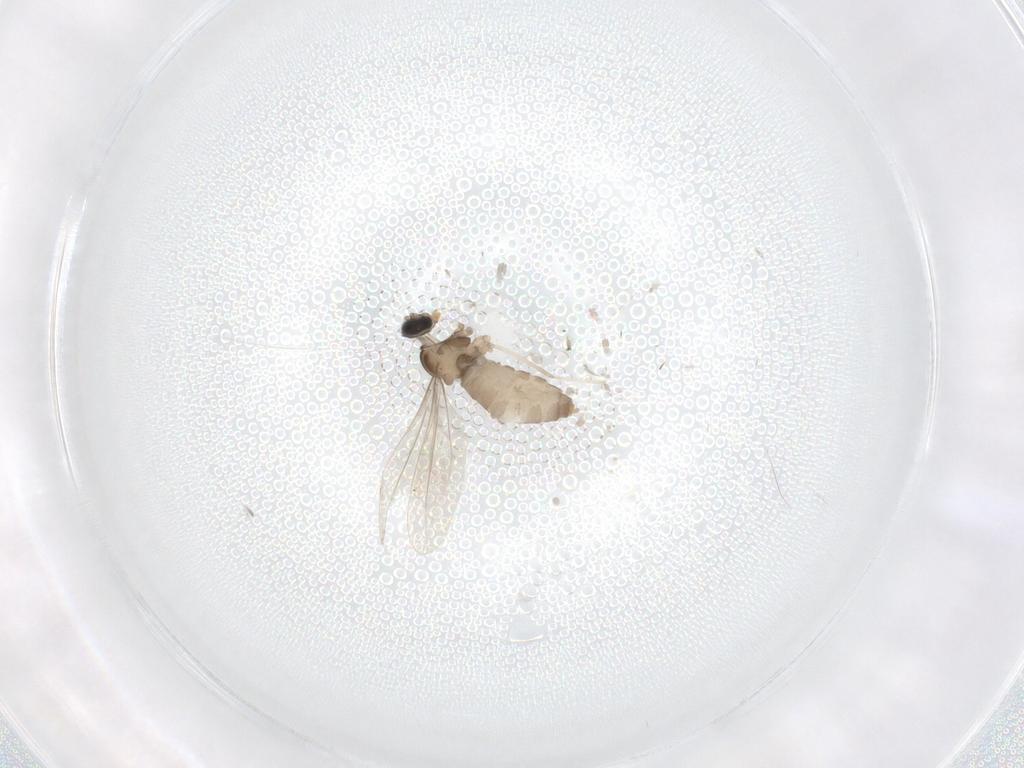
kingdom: Animalia
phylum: Arthropoda
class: Insecta
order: Diptera
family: Cecidomyiidae
